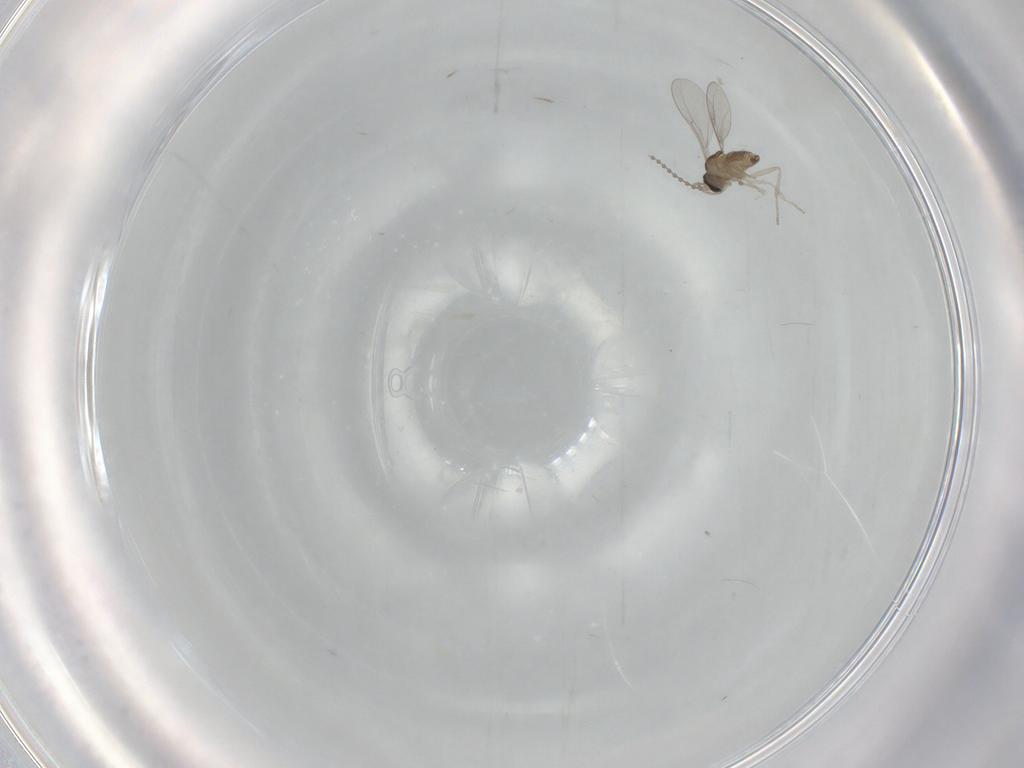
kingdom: Animalia
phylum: Arthropoda
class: Insecta
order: Diptera
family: Cecidomyiidae
